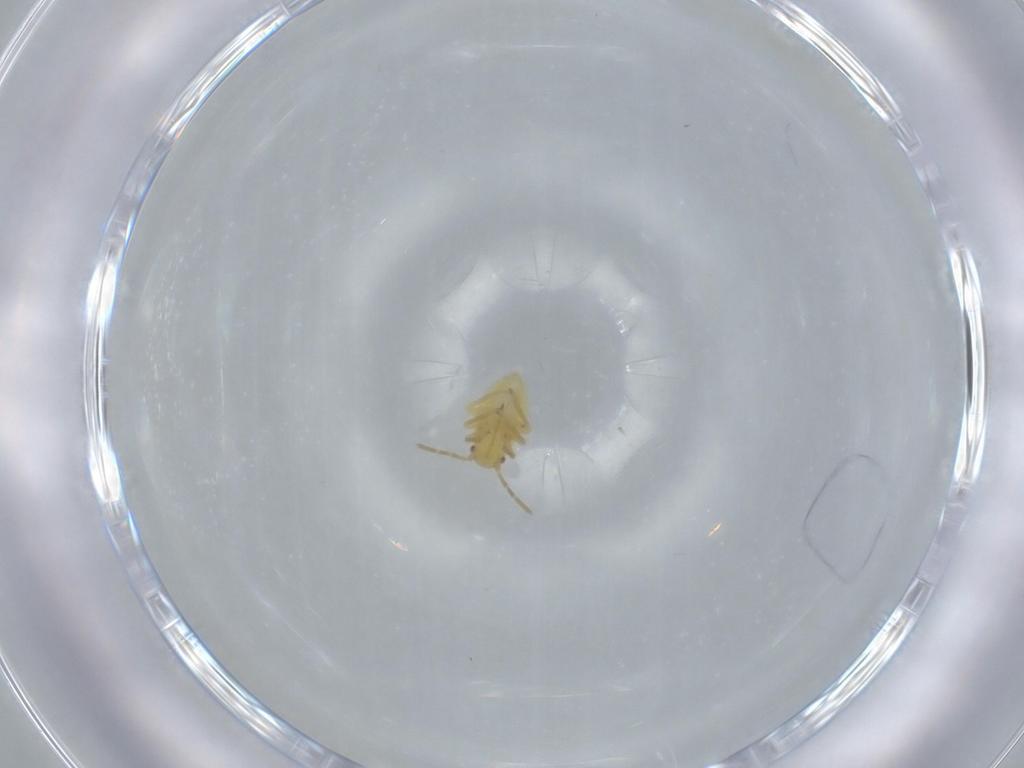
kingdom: Animalia
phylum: Arthropoda
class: Insecta
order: Hemiptera
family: Miridae
